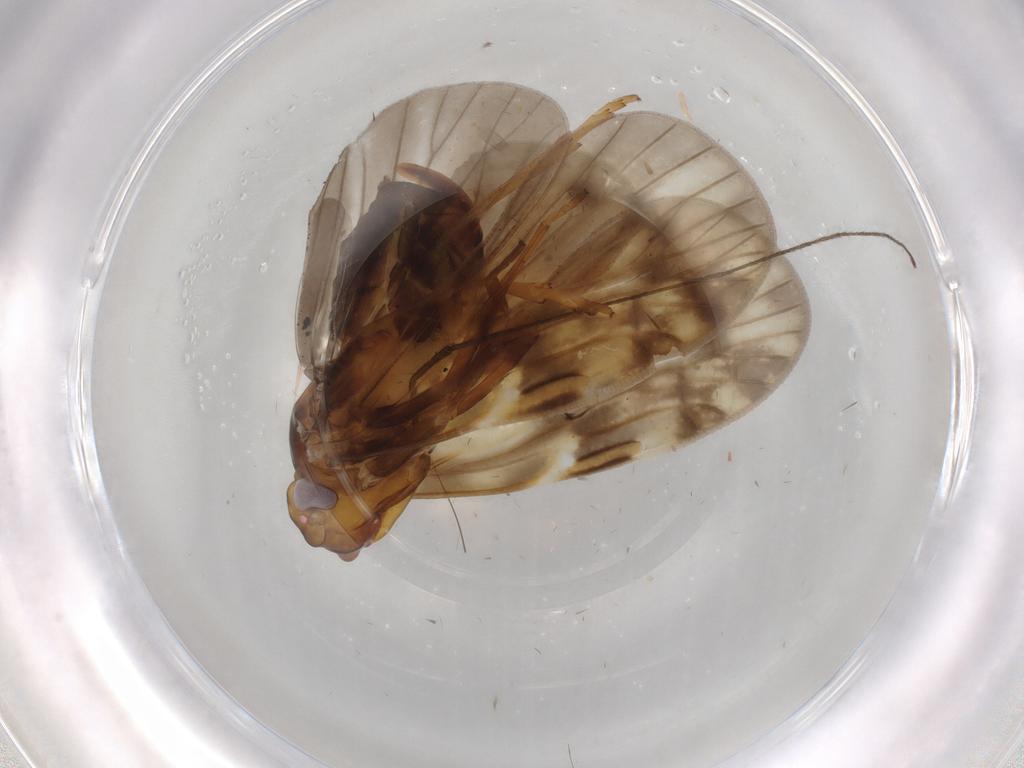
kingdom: Animalia
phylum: Arthropoda
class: Insecta
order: Hemiptera
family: Cixiidae
